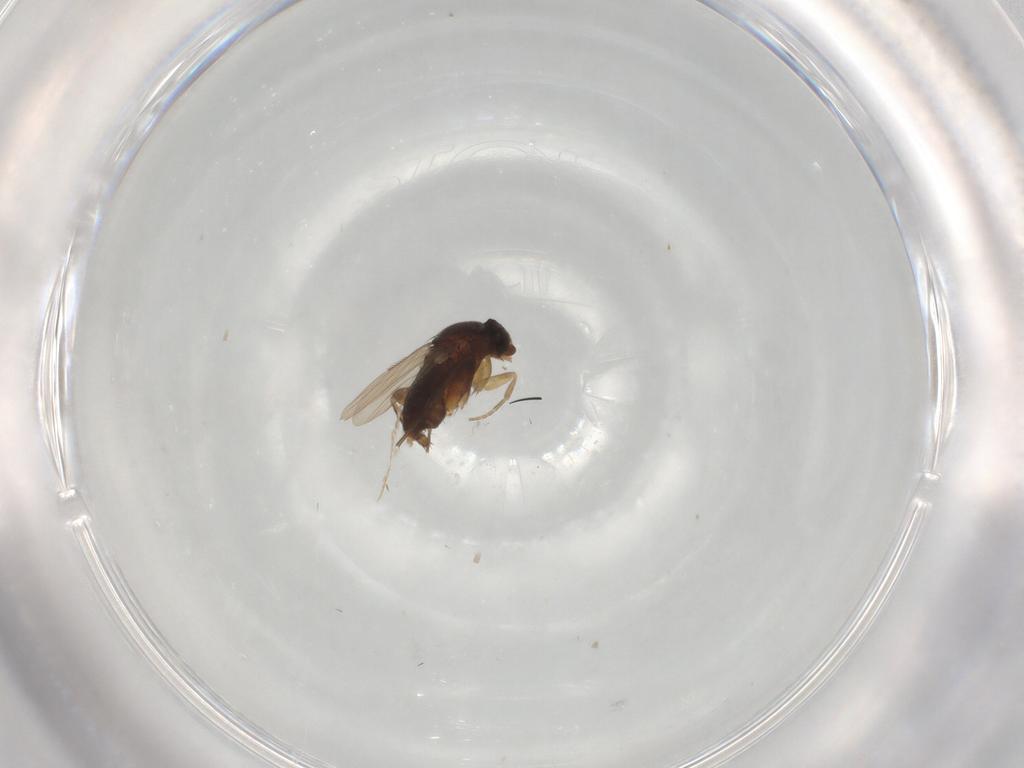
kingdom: Animalia
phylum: Arthropoda
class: Insecta
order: Diptera
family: Phoridae
